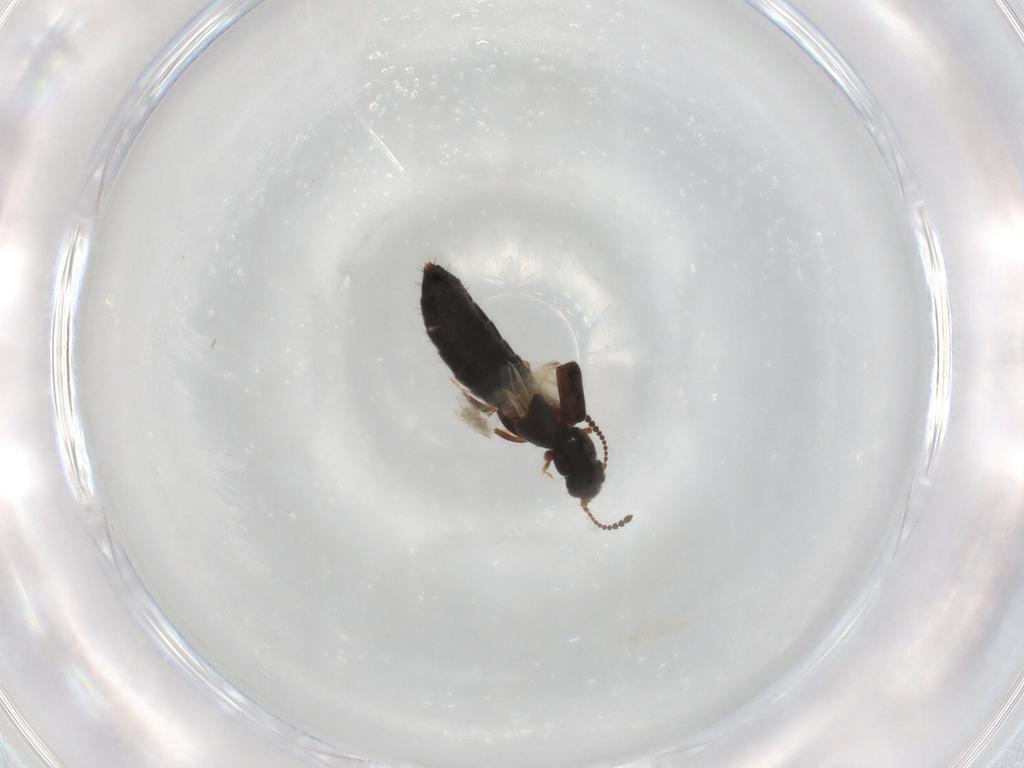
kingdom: Animalia
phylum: Arthropoda
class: Insecta
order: Coleoptera
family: Staphylinidae
